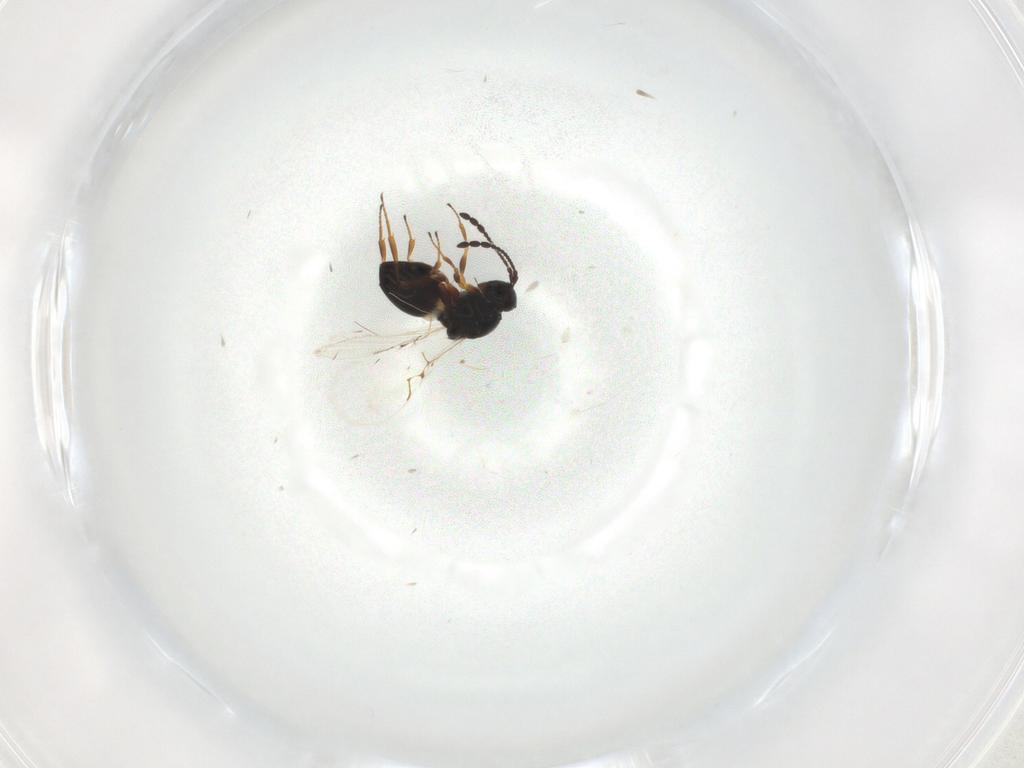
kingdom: Animalia
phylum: Arthropoda
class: Insecta
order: Hymenoptera
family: Figitidae
